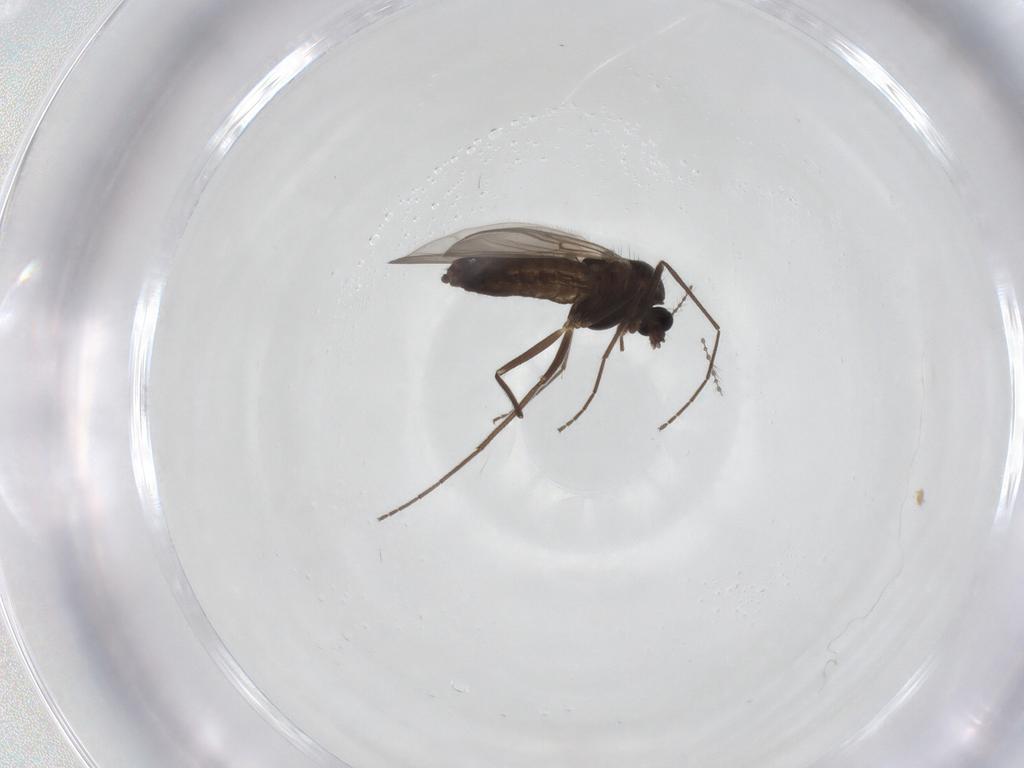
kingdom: Animalia
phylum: Arthropoda
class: Insecta
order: Diptera
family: Chironomidae
